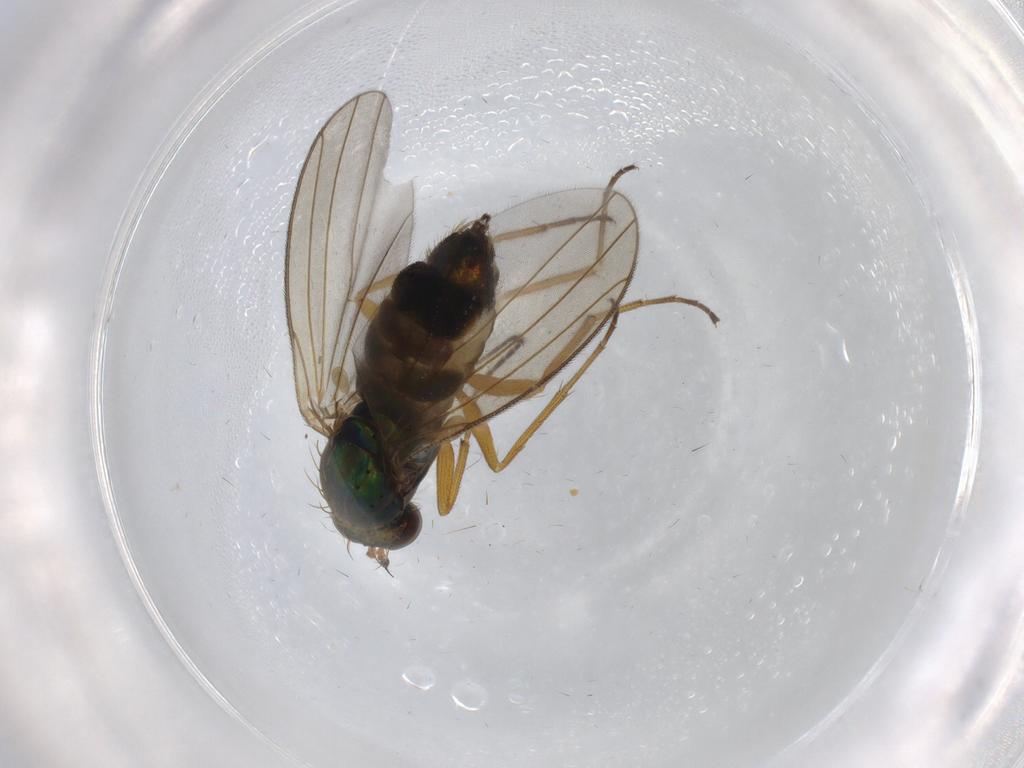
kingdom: Animalia
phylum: Arthropoda
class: Insecta
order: Diptera
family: Dolichopodidae
